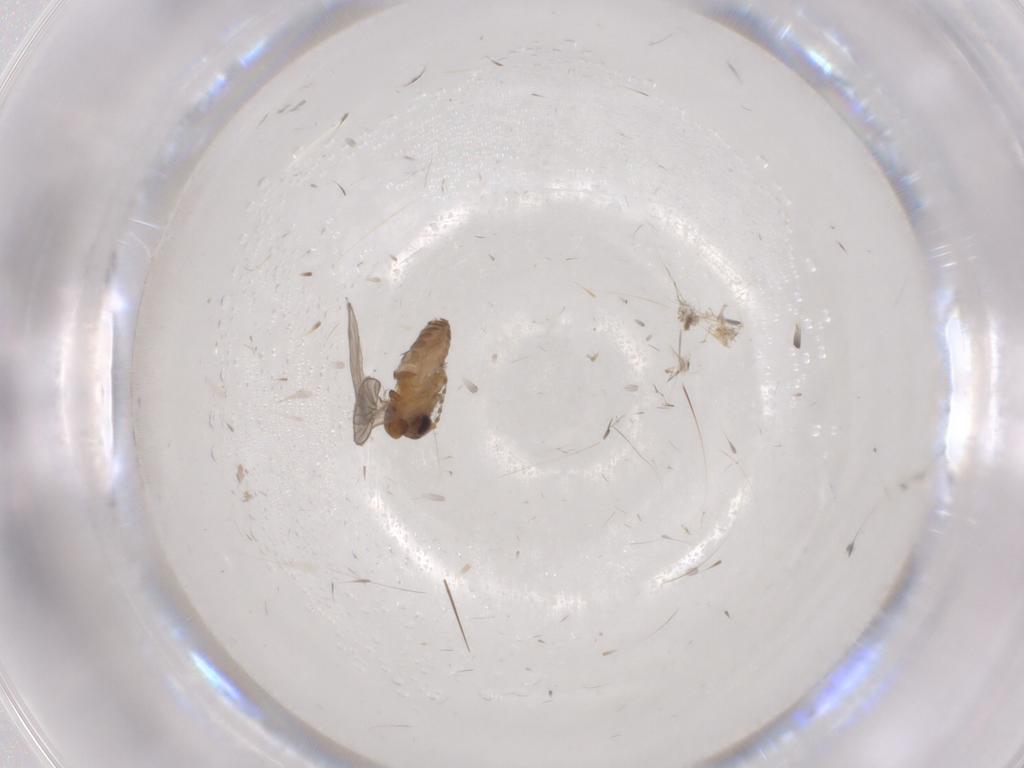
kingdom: Animalia
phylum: Arthropoda
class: Insecta
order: Diptera
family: Psychodidae
